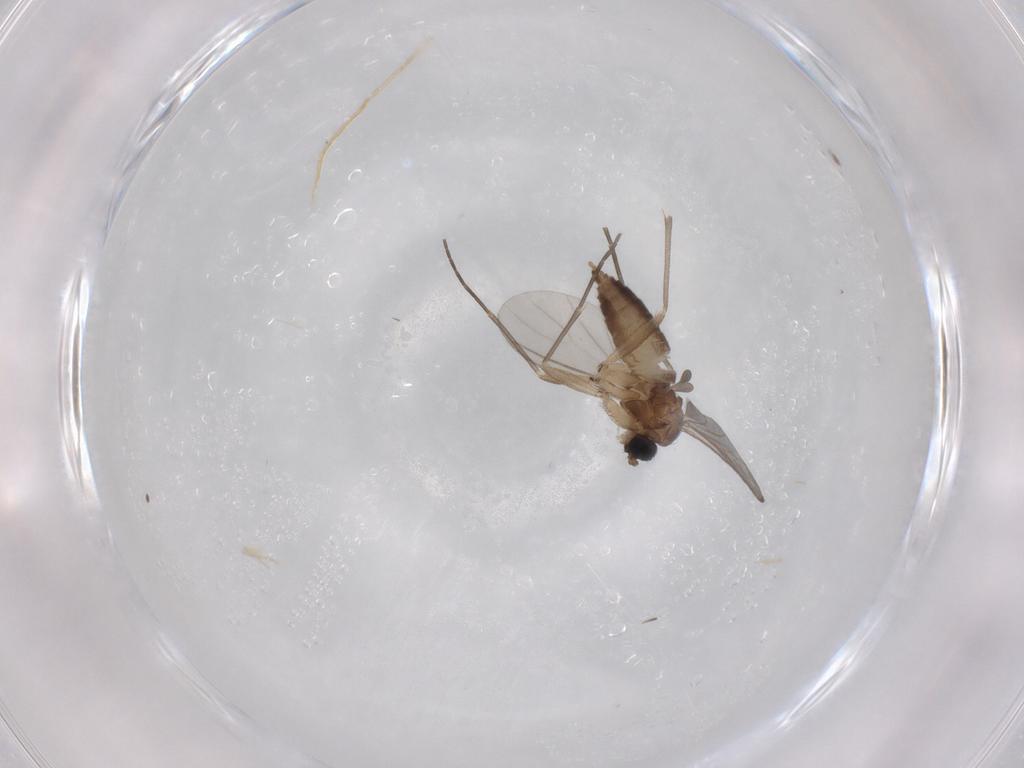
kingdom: Animalia
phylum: Arthropoda
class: Insecta
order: Diptera
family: Sciaridae
